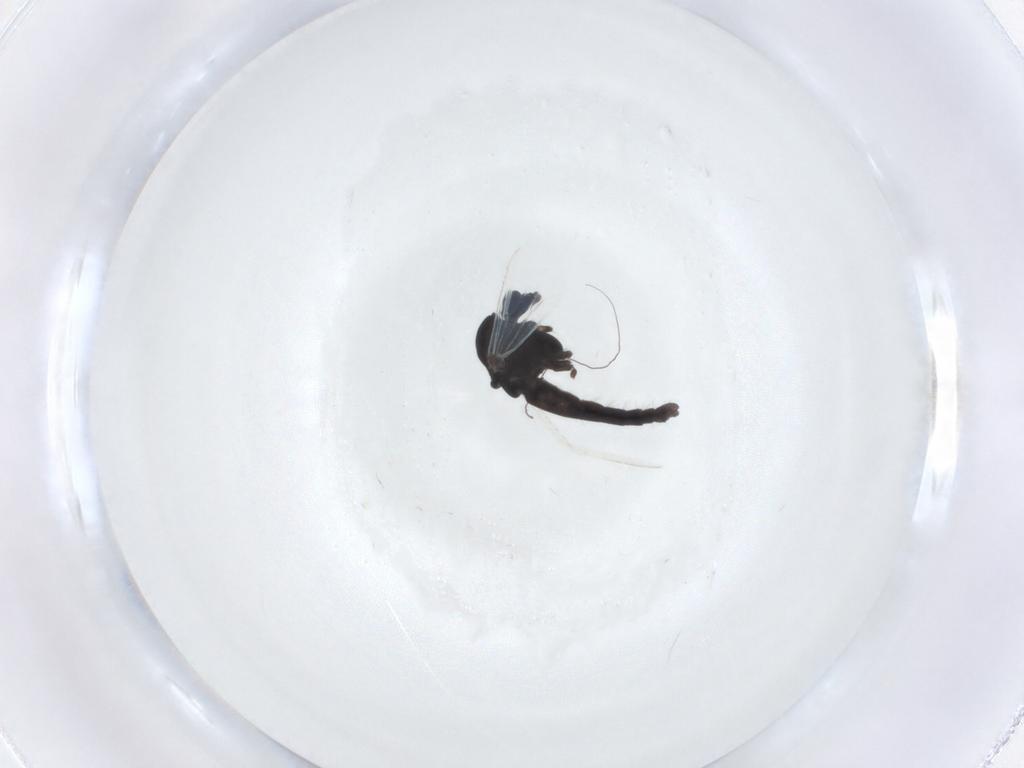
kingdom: Animalia
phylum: Arthropoda
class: Insecta
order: Diptera
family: Chironomidae
